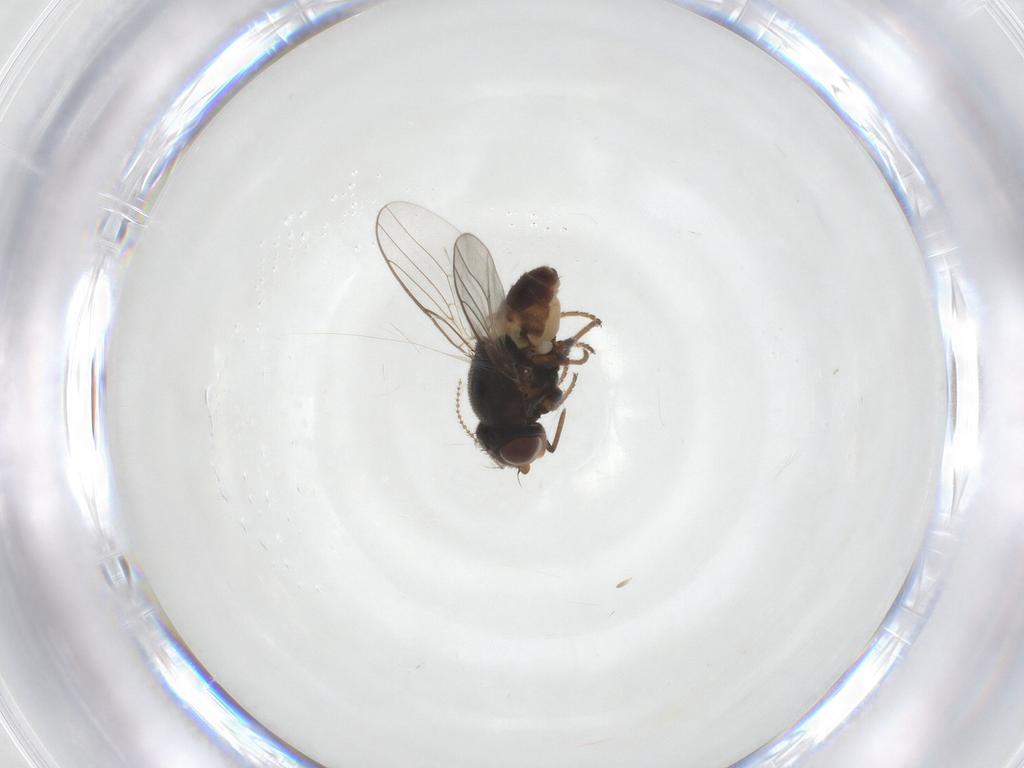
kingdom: Animalia
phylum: Arthropoda
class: Insecta
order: Diptera
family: Chloropidae
